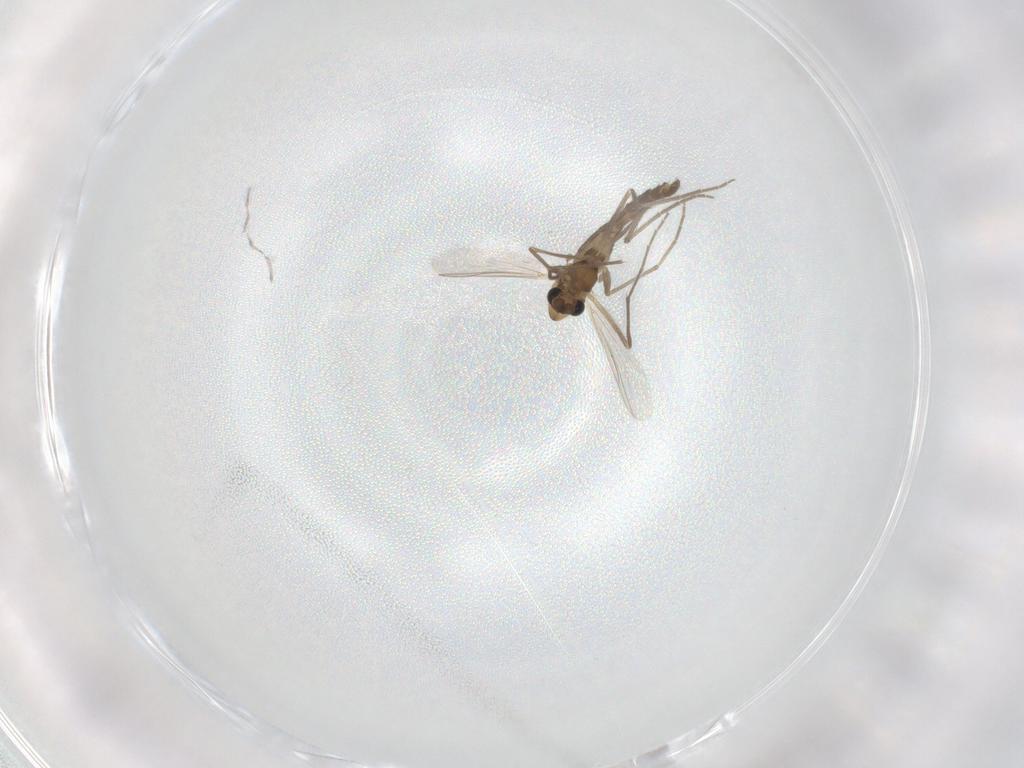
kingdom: Animalia
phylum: Arthropoda
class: Insecta
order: Diptera
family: Chironomidae
